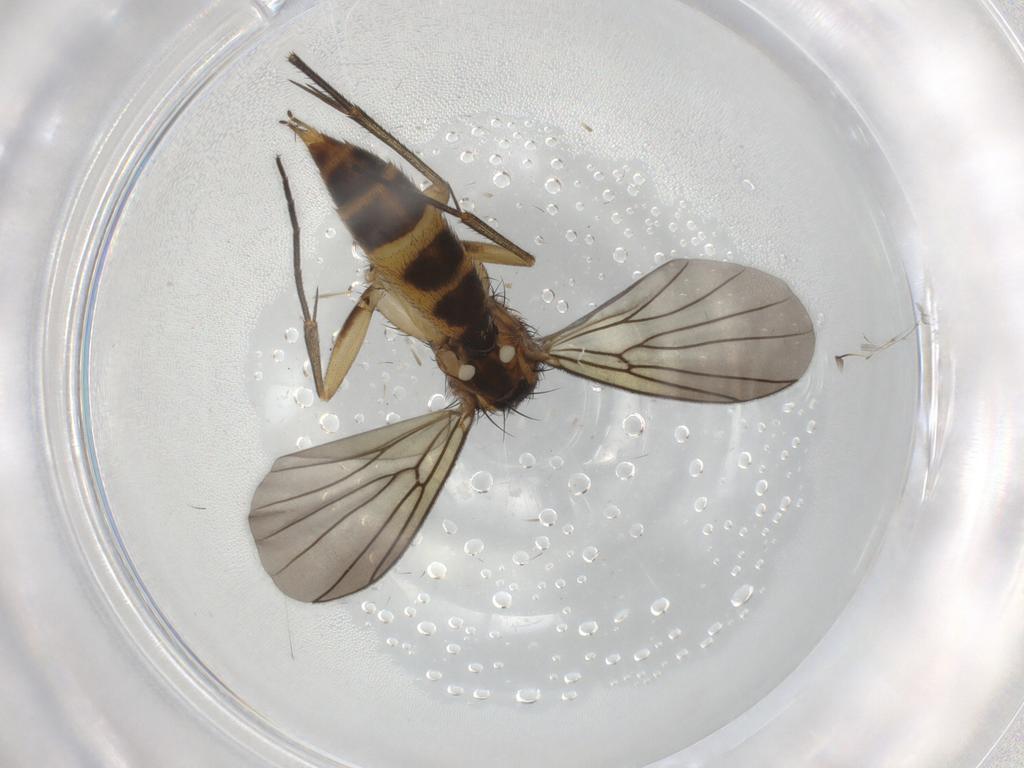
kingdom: Animalia
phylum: Arthropoda
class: Insecta
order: Diptera
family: Mycetophilidae
